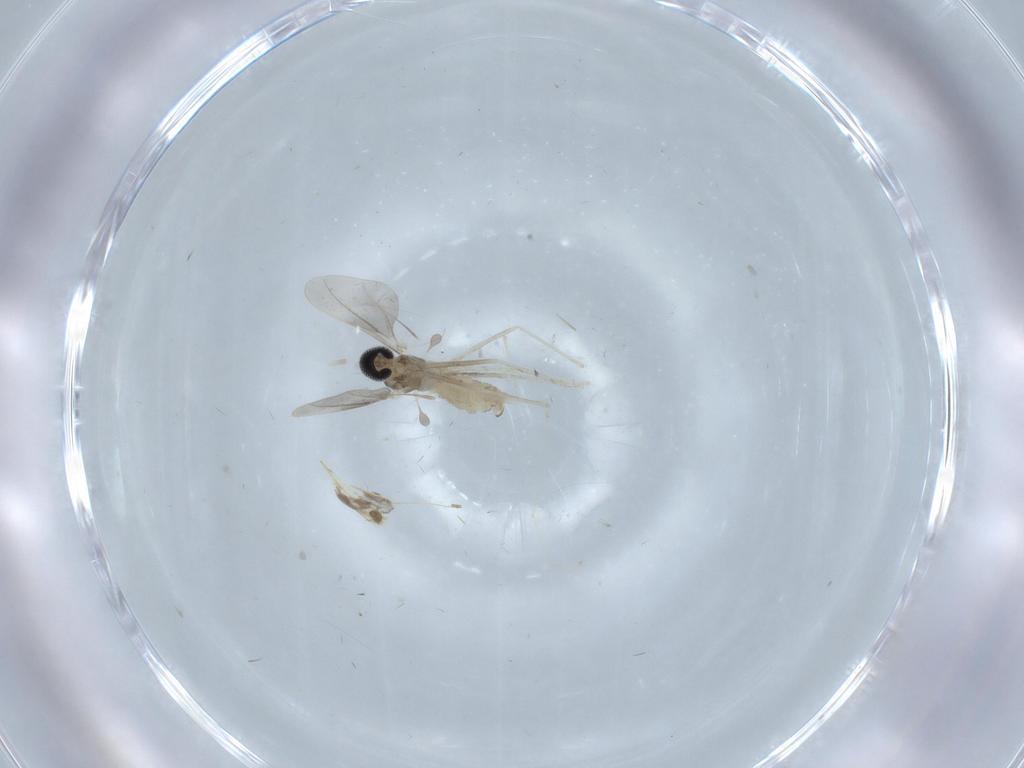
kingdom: Animalia
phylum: Arthropoda
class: Insecta
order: Diptera
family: Cecidomyiidae
